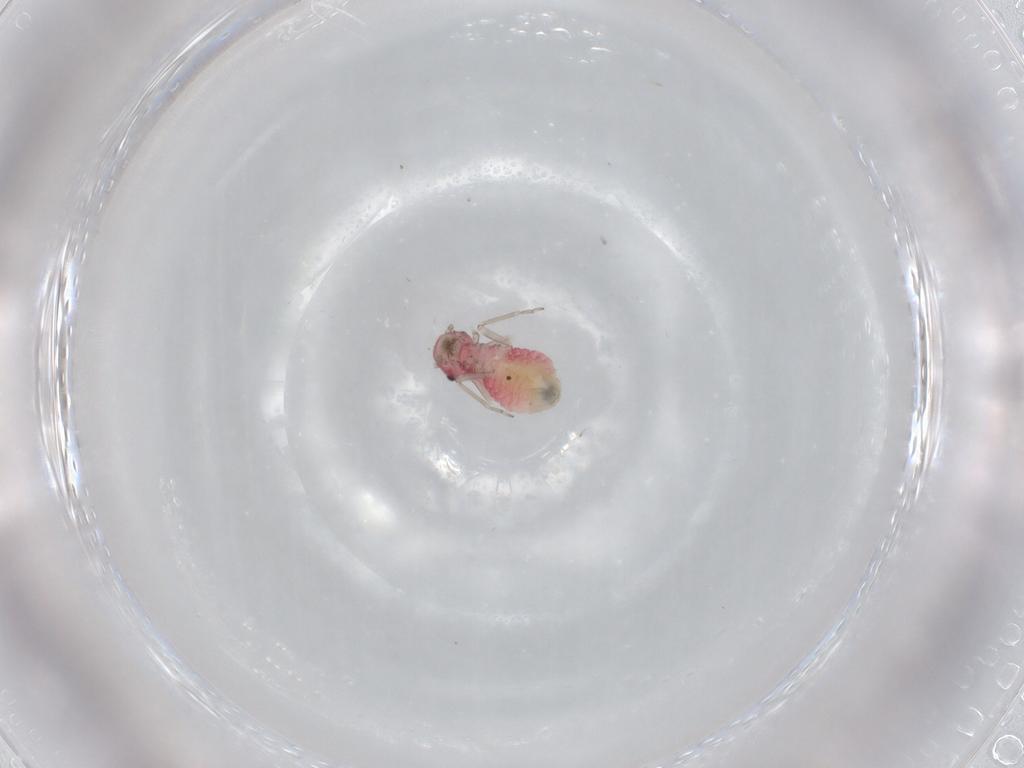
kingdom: Animalia
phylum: Arthropoda
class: Insecta
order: Psocodea
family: Archipsocidae
